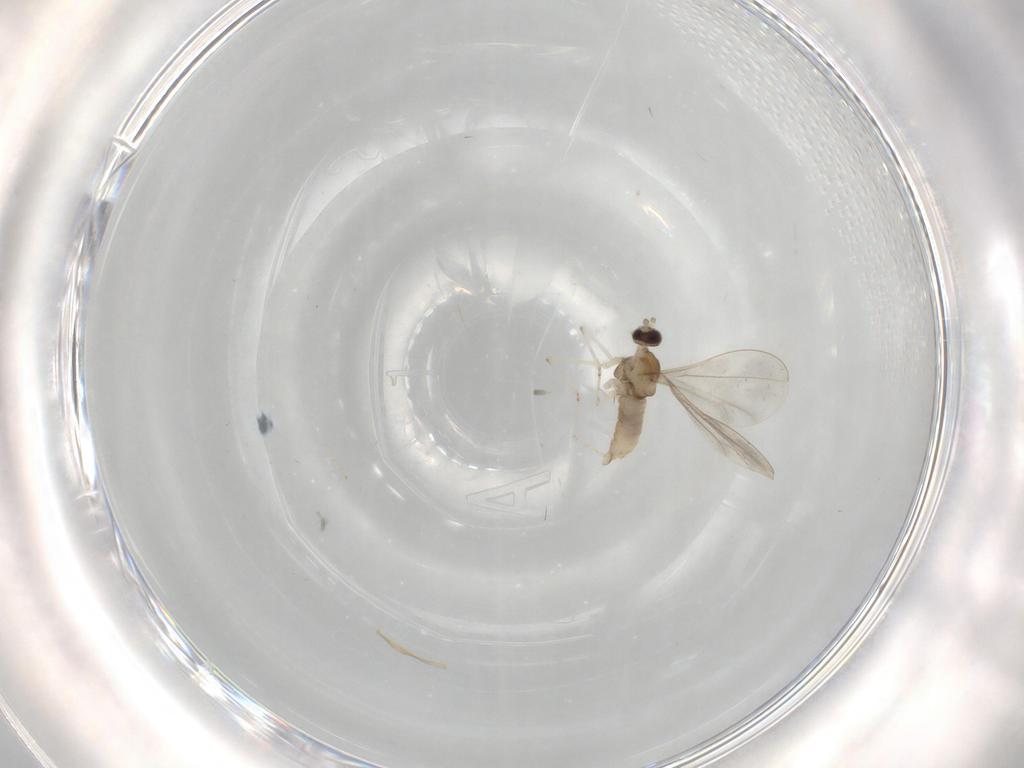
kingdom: Animalia
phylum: Arthropoda
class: Insecta
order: Diptera
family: Cecidomyiidae
